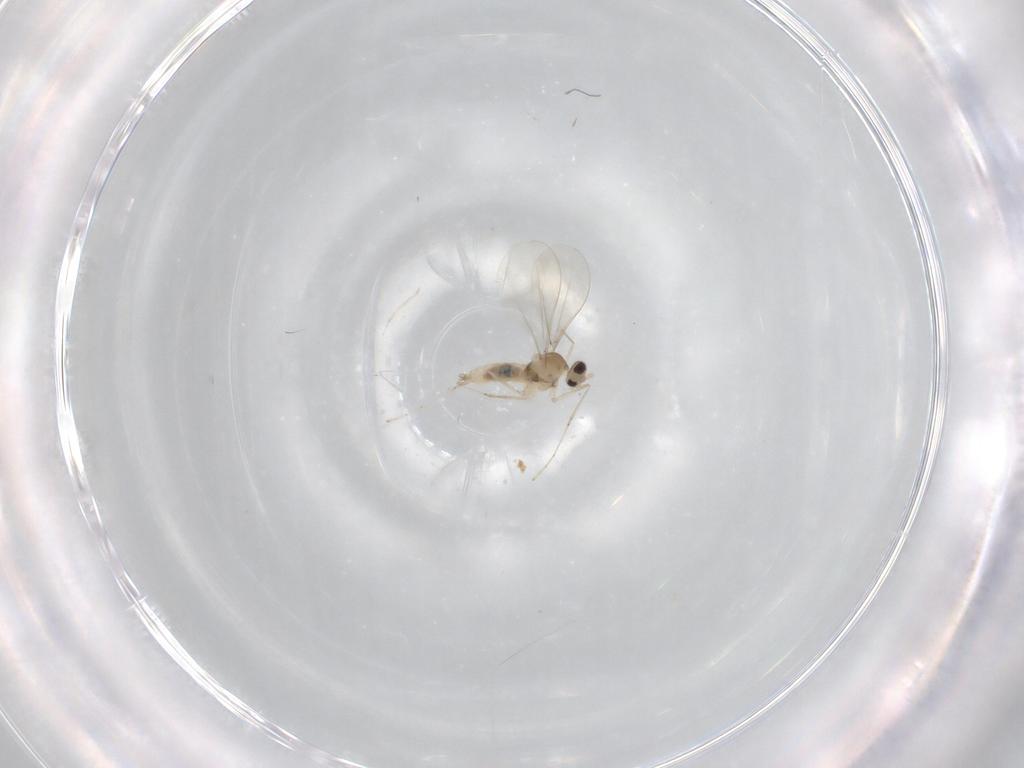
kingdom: Animalia
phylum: Arthropoda
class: Insecta
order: Diptera
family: Cecidomyiidae
